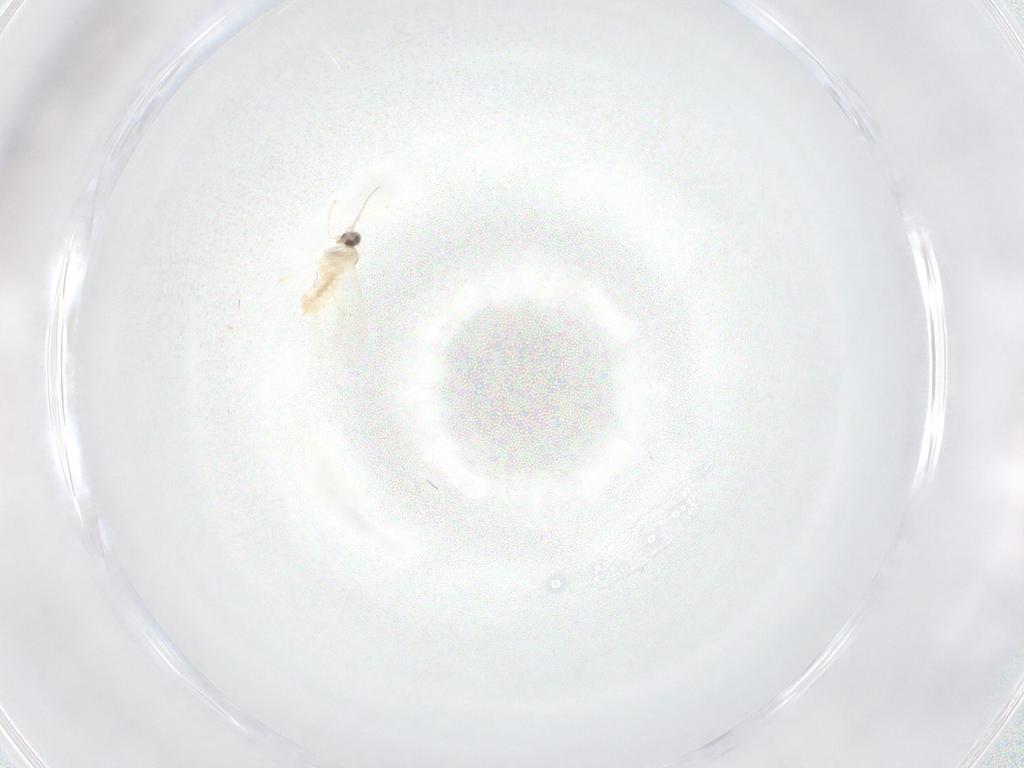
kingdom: Animalia
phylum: Arthropoda
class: Insecta
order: Diptera
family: Cecidomyiidae
